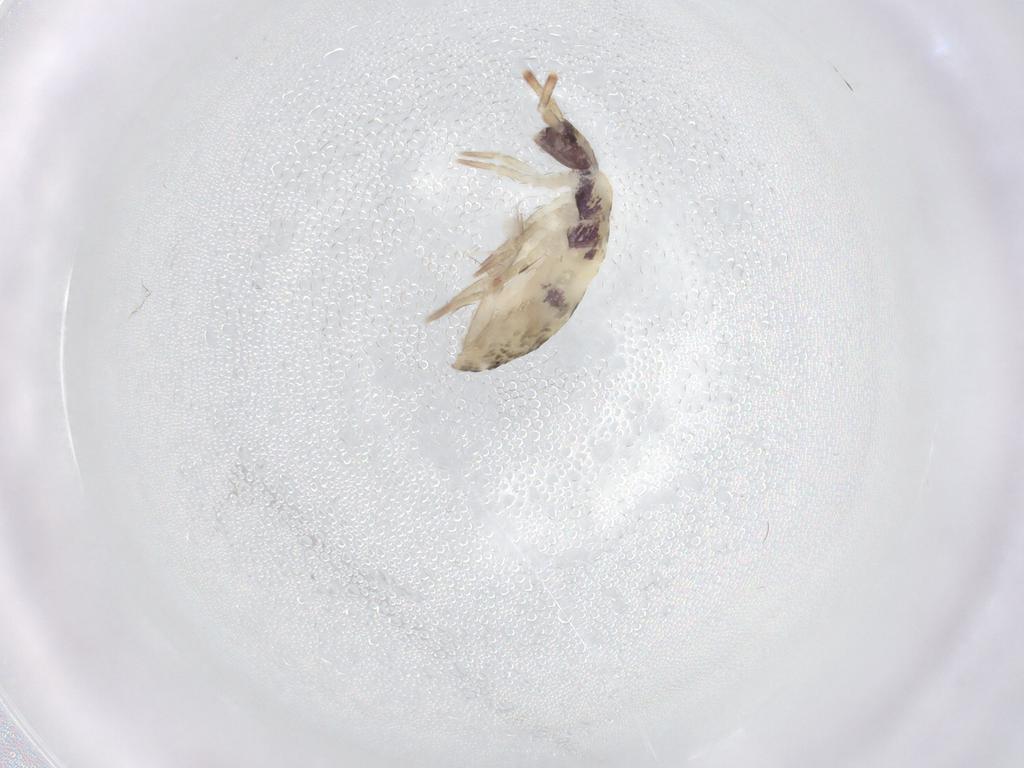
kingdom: Animalia
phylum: Arthropoda
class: Collembola
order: Entomobryomorpha
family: Entomobryidae
